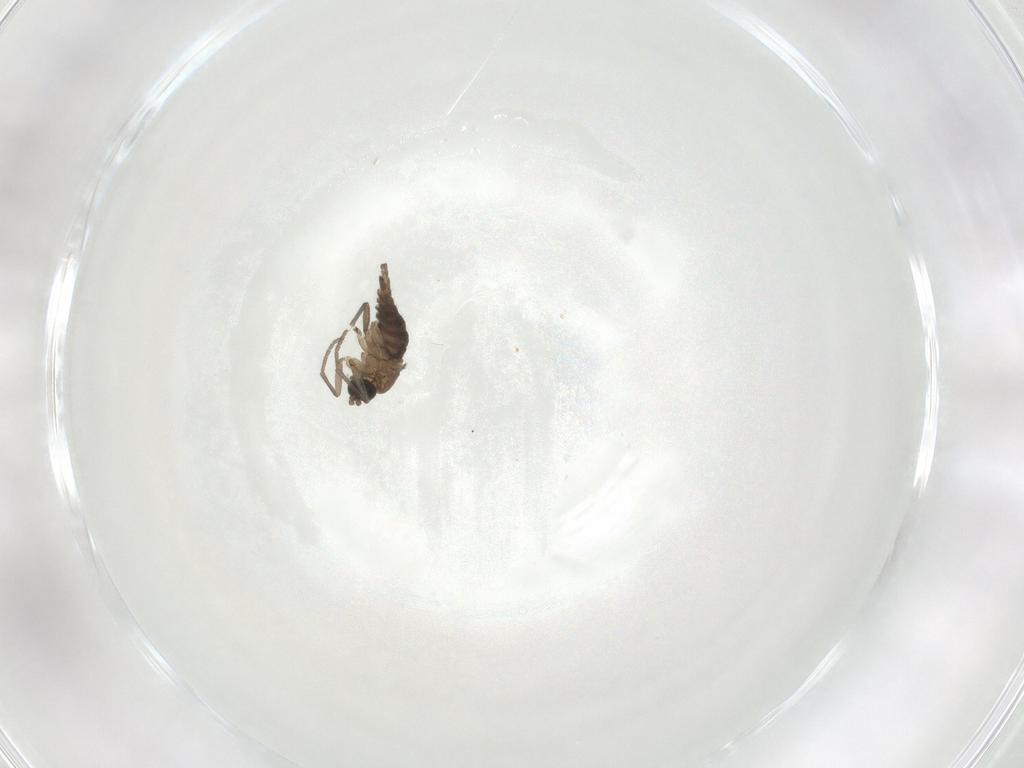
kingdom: Animalia
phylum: Arthropoda
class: Insecta
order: Diptera
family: Sciaridae
